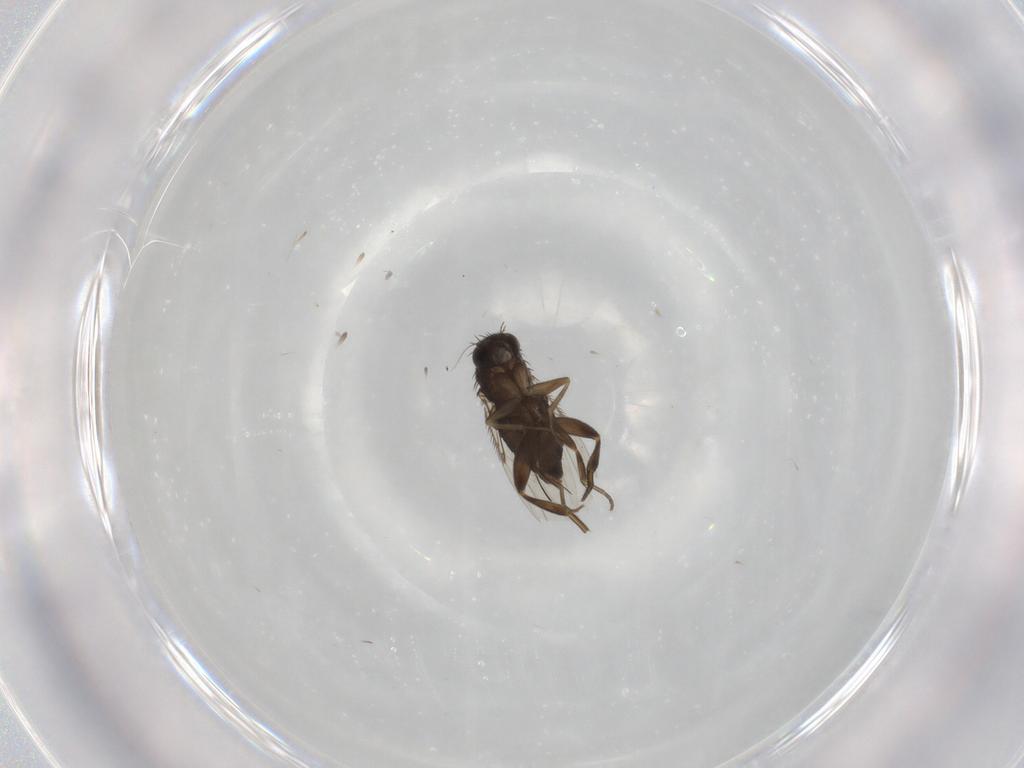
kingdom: Animalia
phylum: Arthropoda
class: Insecta
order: Diptera
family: Phoridae
